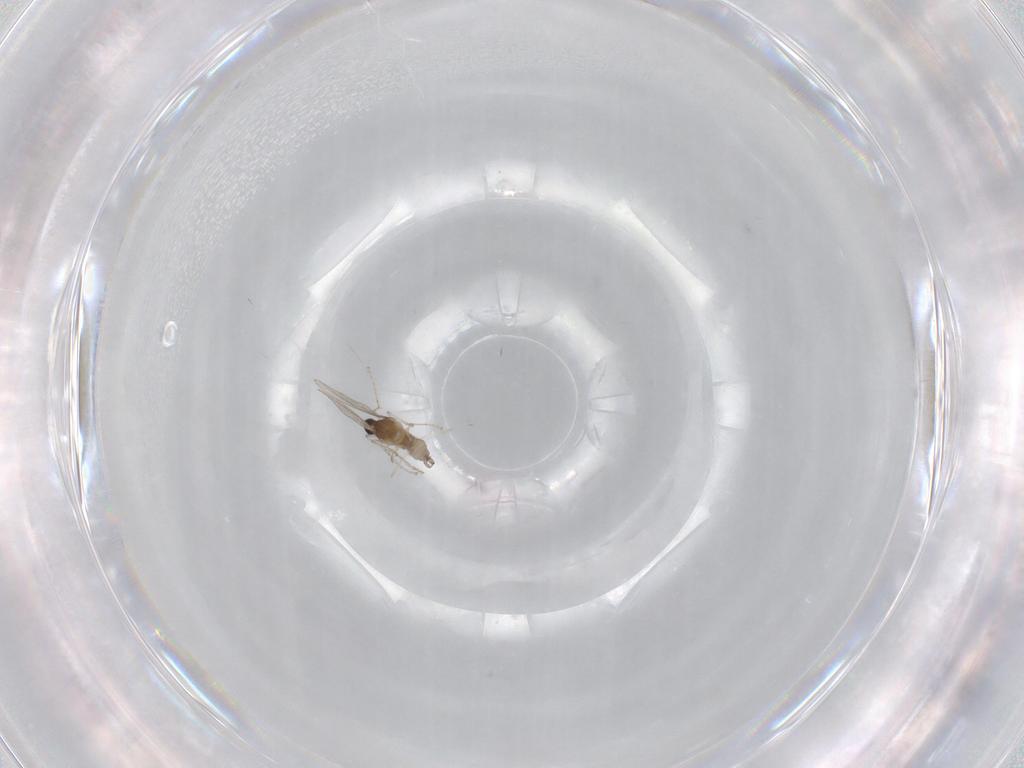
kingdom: Animalia
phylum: Arthropoda
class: Insecta
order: Diptera
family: Cecidomyiidae
